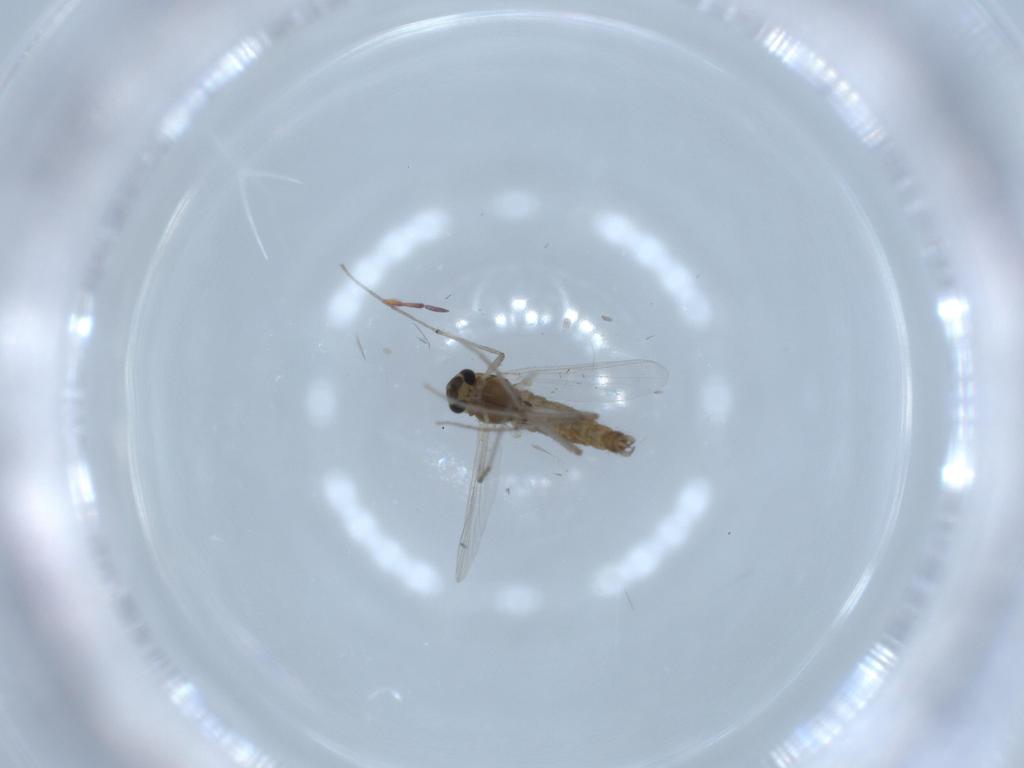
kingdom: Animalia
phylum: Arthropoda
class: Insecta
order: Diptera
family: Chironomidae
